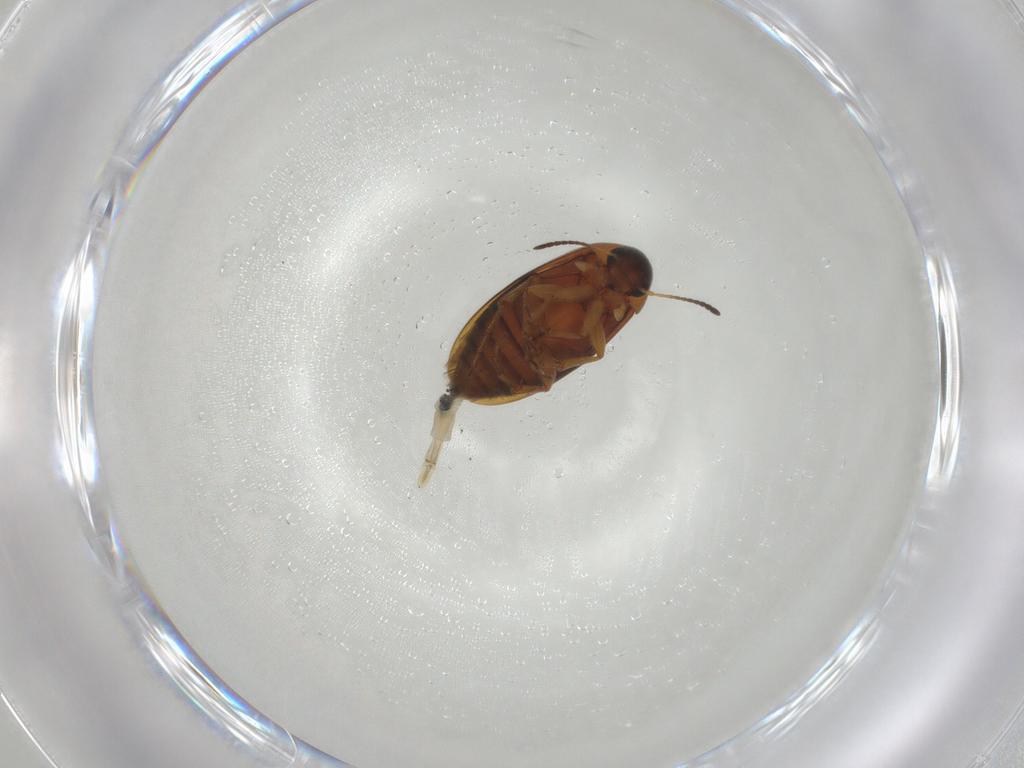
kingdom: Animalia
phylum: Arthropoda
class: Insecta
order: Coleoptera
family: Scraptiidae
